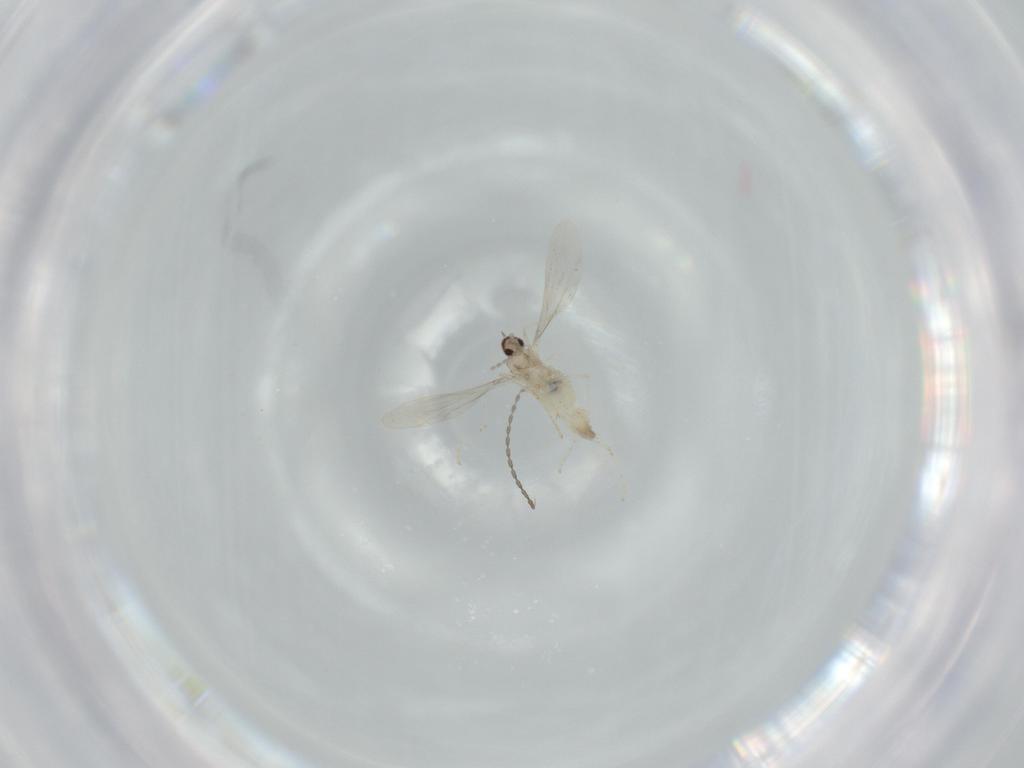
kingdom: Animalia
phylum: Arthropoda
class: Insecta
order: Diptera
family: Cecidomyiidae
